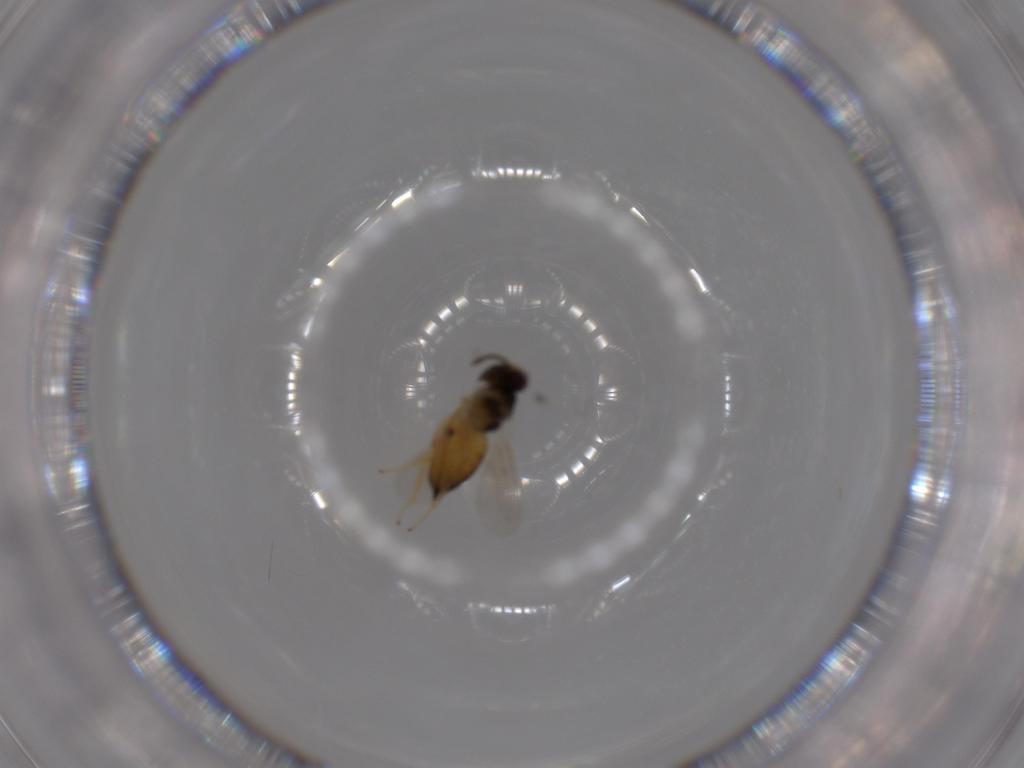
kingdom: Animalia
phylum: Arthropoda
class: Insecta
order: Hymenoptera
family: Eulophidae
